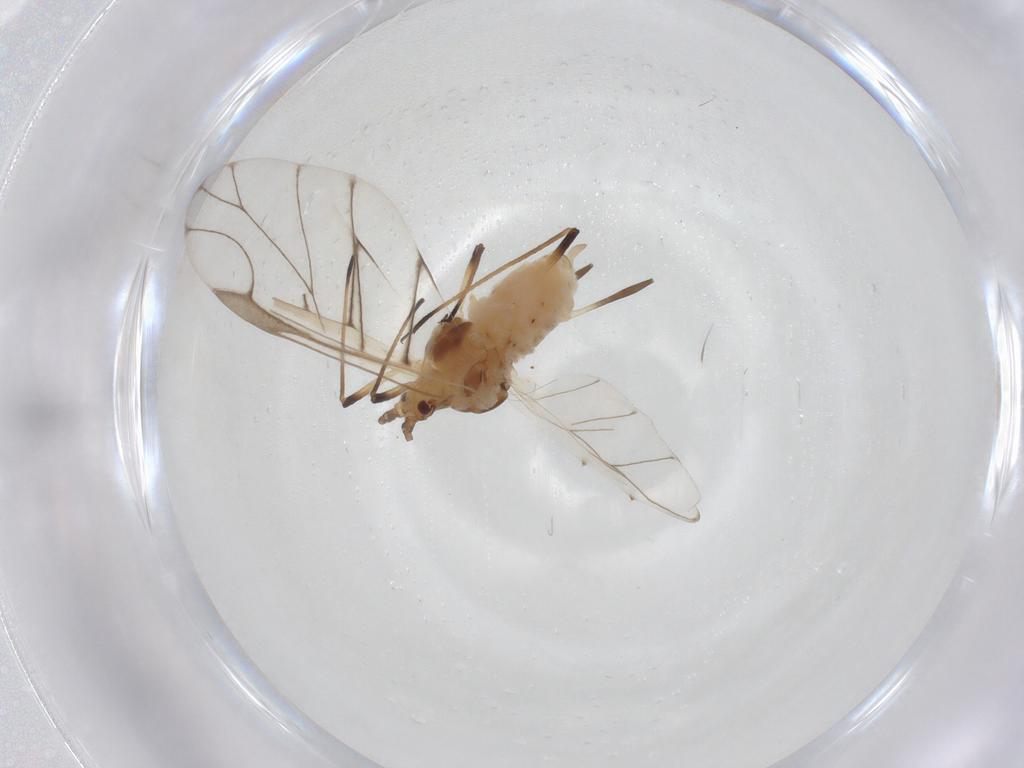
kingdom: Animalia
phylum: Arthropoda
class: Insecta
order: Hemiptera
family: Aphididae
